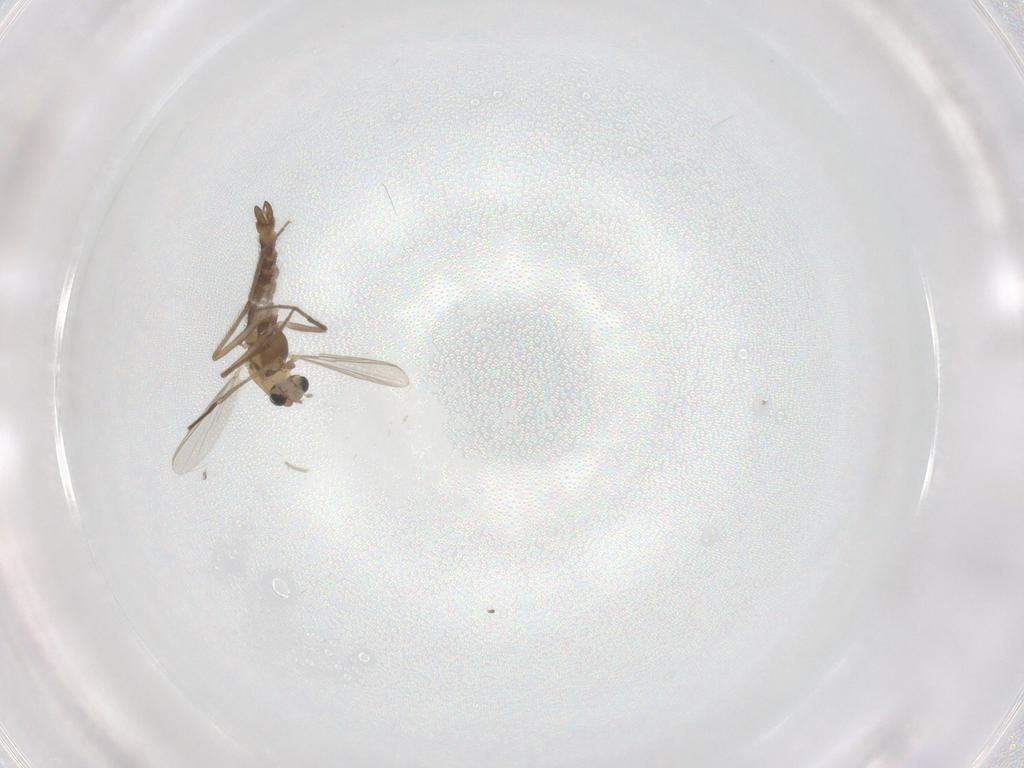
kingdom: Animalia
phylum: Arthropoda
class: Insecta
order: Diptera
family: Chironomidae
